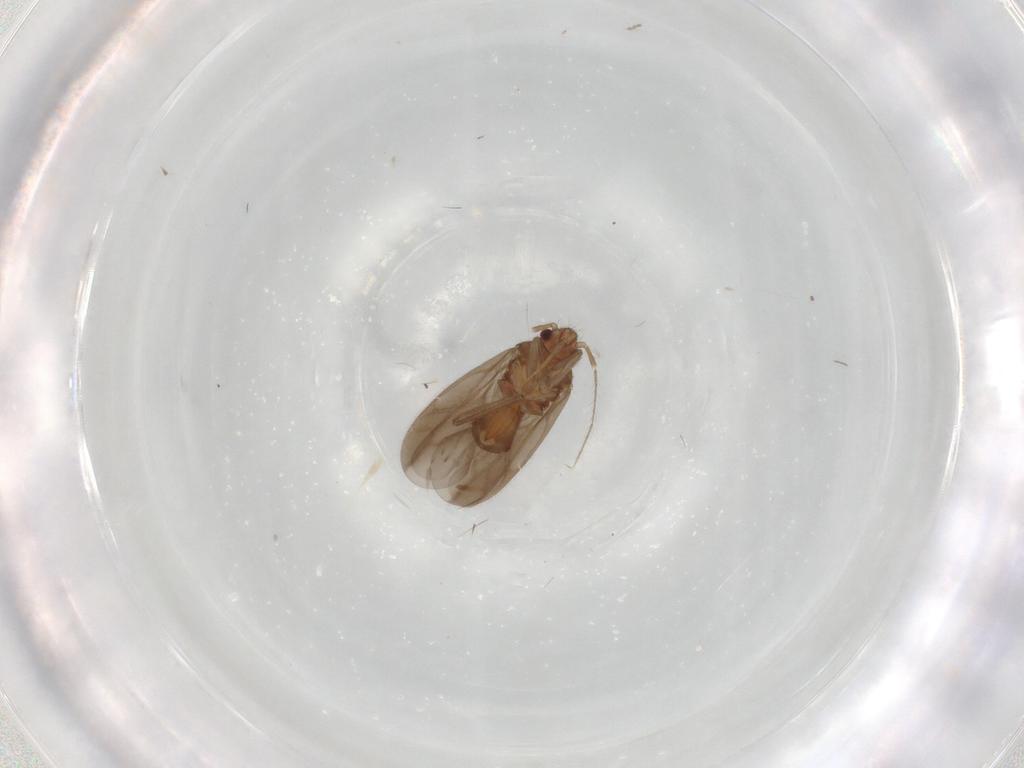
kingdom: Animalia
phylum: Arthropoda
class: Insecta
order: Hemiptera
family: Ceratocombidae
